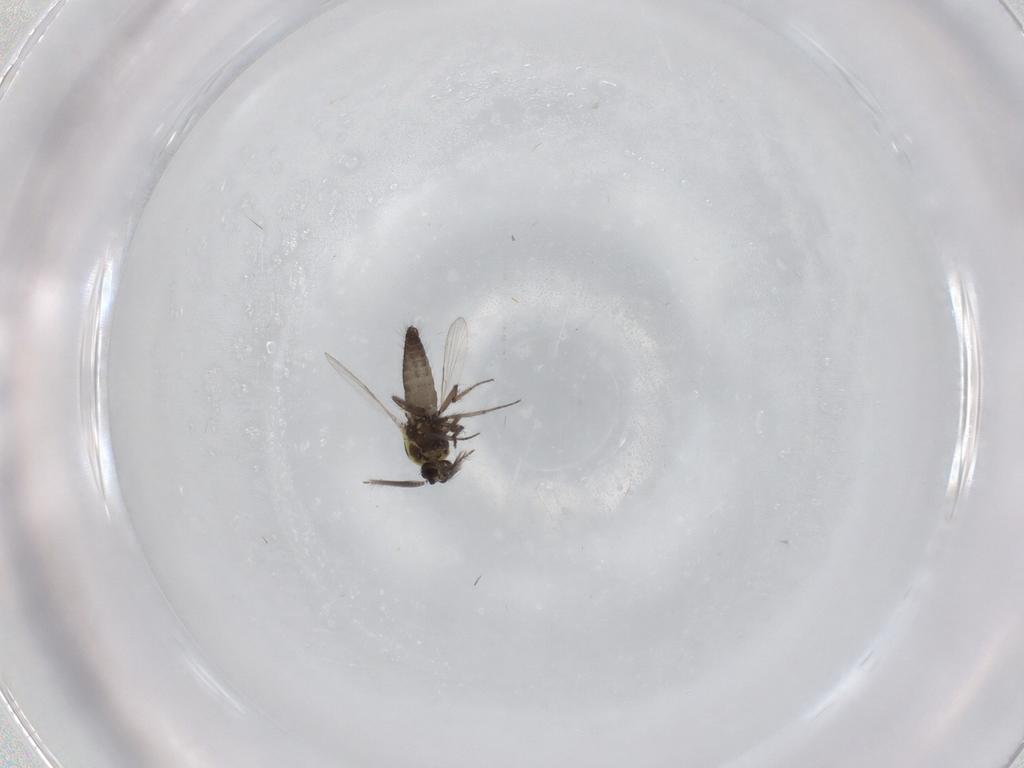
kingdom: Animalia
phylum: Arthropoda
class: Insecta
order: Diptera
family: Ceratopogonidae
